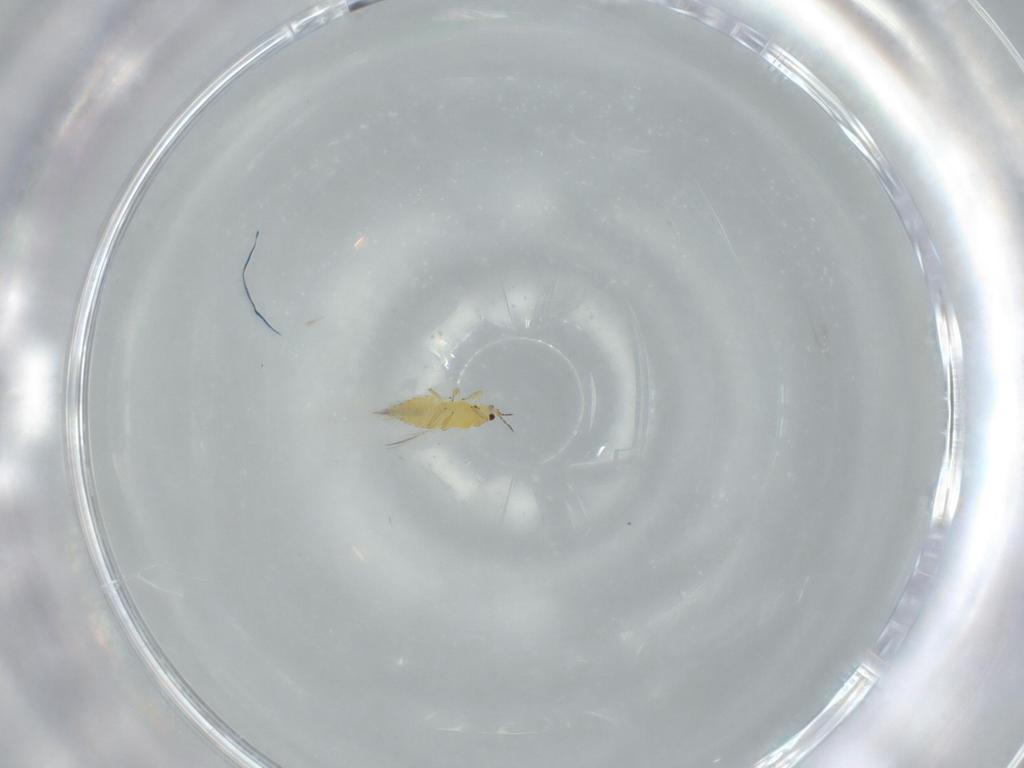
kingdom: Animalia
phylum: Arthropoda
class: Insecta
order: Thysanoptera
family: Thripidae
